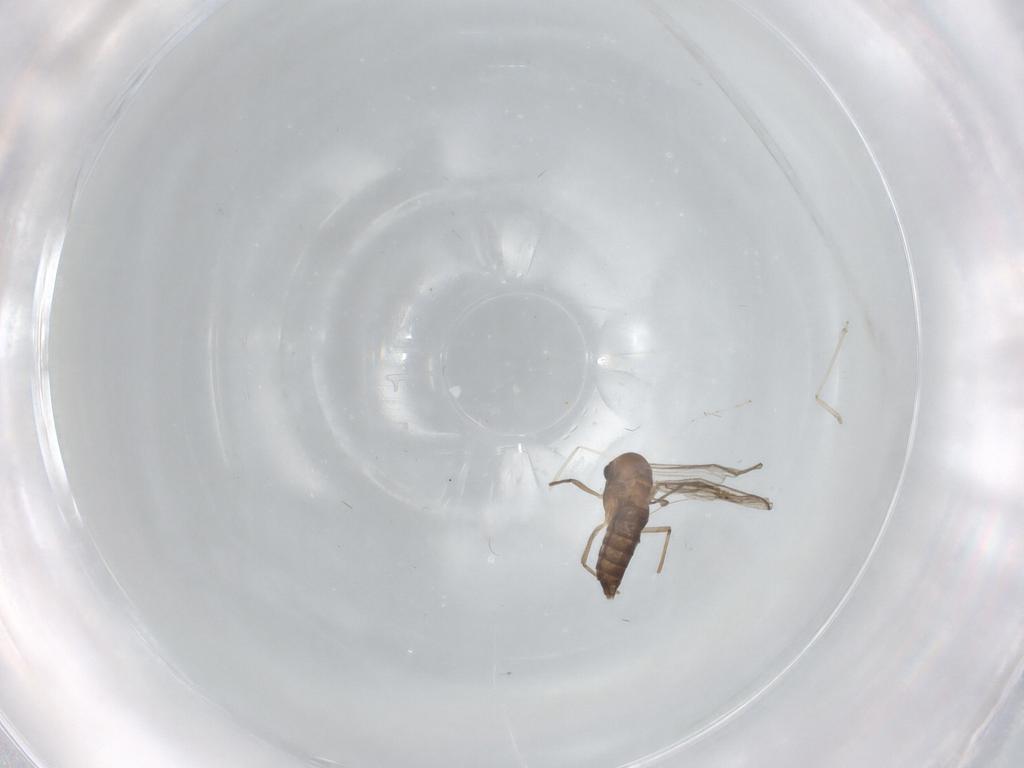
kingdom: Animalia
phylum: Arthropoda
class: Insecta
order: Diptera
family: Chironomidae
